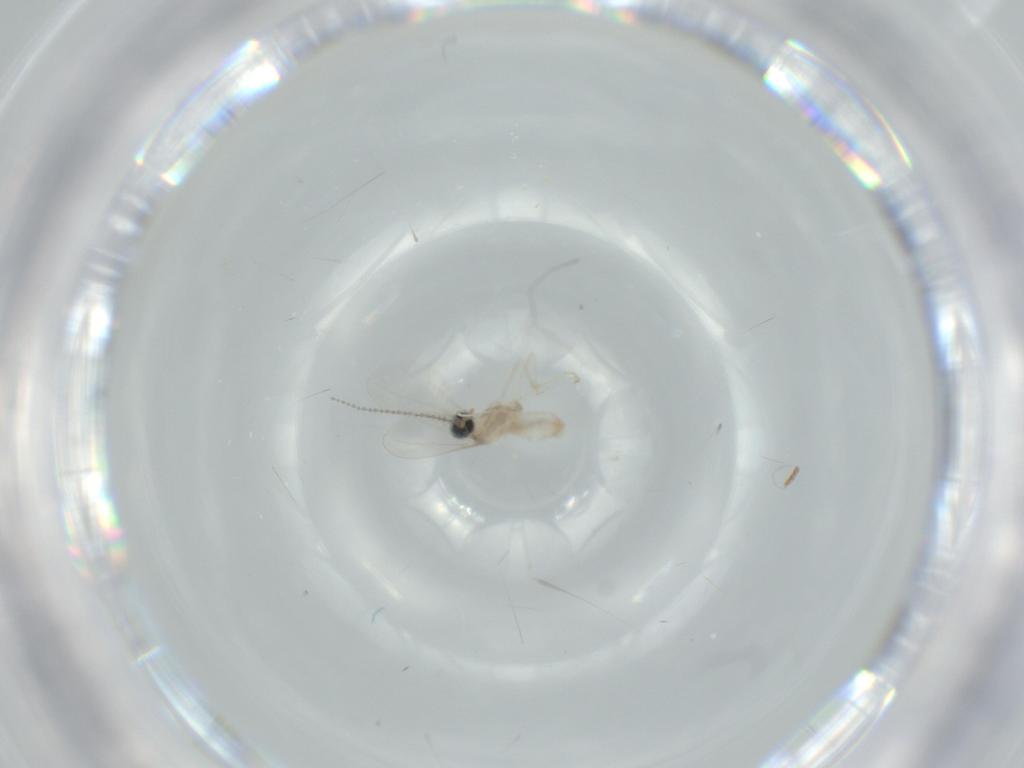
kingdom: Animalia
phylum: Arthropoda
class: Insecta
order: Diptera
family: Cecidomyiidae
